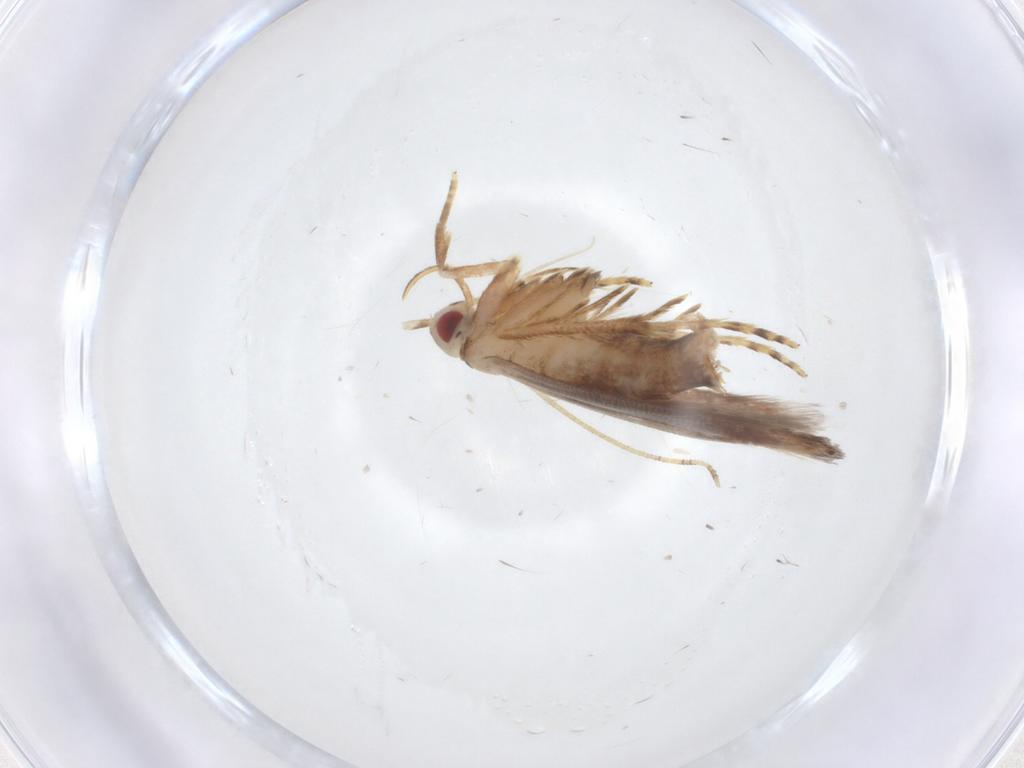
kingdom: Animalia
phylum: Arthropoda
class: Insecta
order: Lepidoptera
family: Cosmopterigidae
